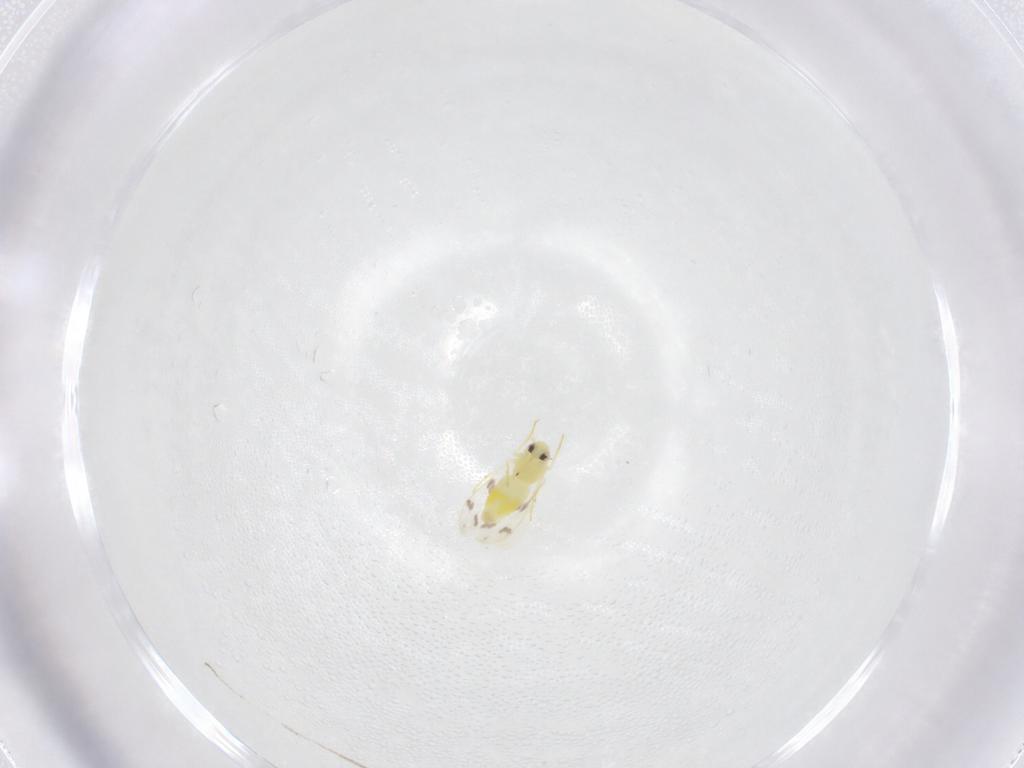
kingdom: Animalia
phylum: Arthropoda
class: Insecta
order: Hemiptera
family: Aleyrodidae
